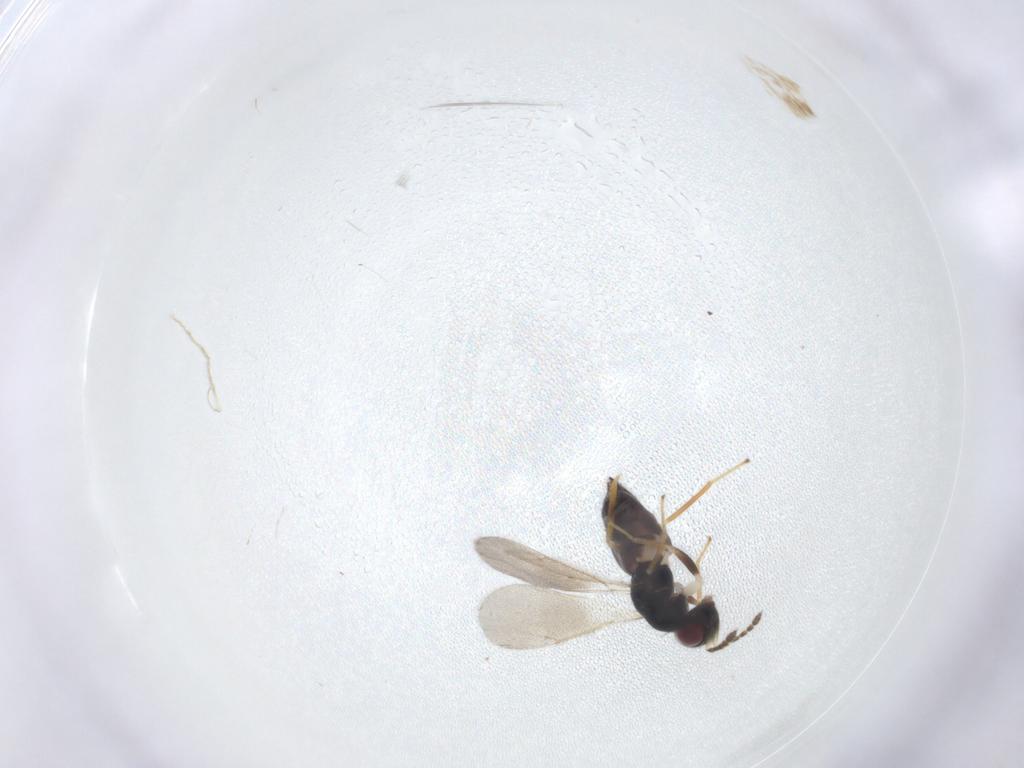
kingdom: Animalia
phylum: Arthropoda
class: Insecta
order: Hymenoptera
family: Eulophidae
